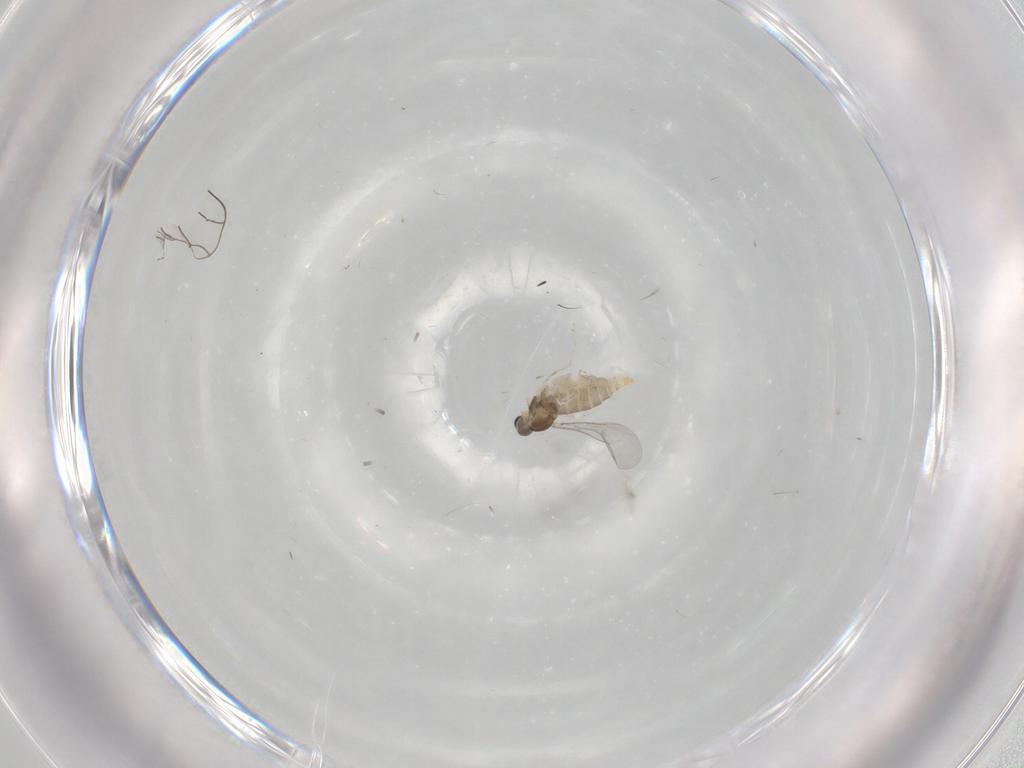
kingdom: Animalia
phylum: Arthropoda
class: Insecta
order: Diptera
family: Cecidomyiidae
